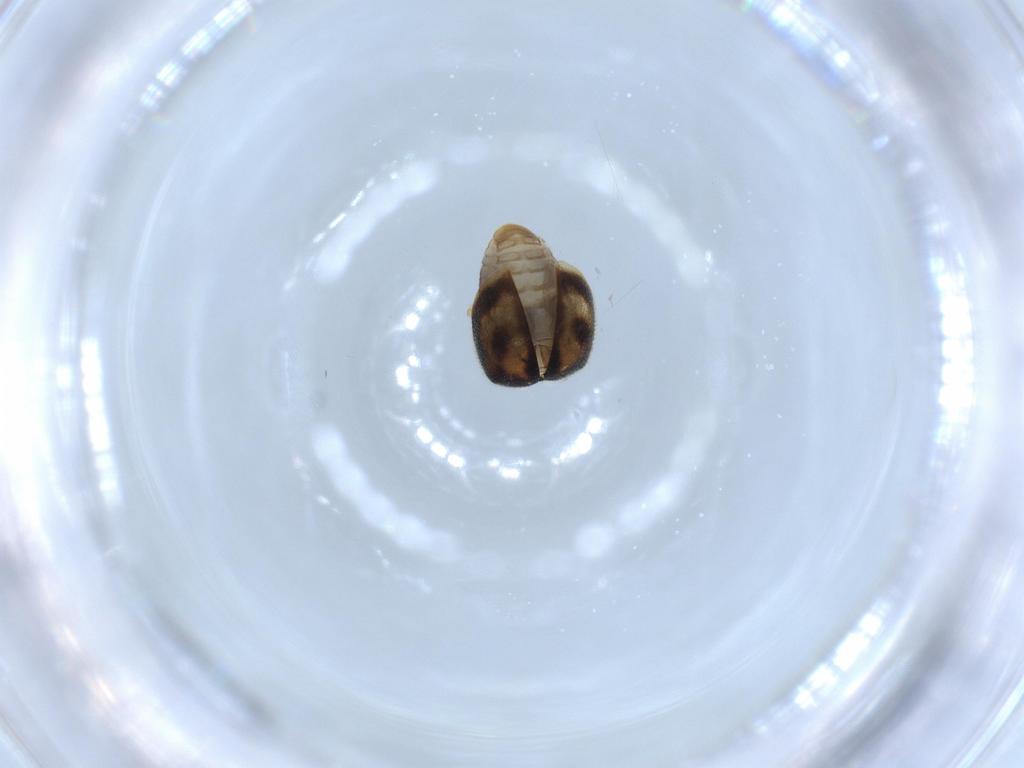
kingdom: Animalia
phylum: Arthropoda
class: Insecta
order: Coleoptera
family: Coccinellidae
